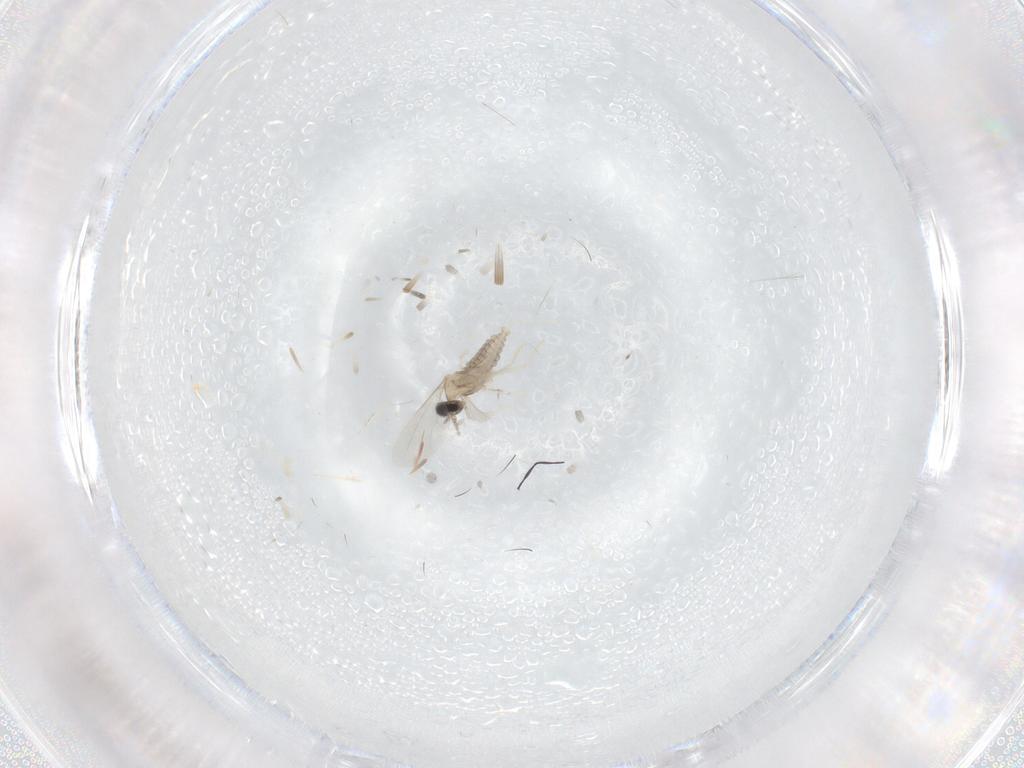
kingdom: Animalia
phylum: Arthropoda
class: Insecta
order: Diptera
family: Cecidomyiidae
